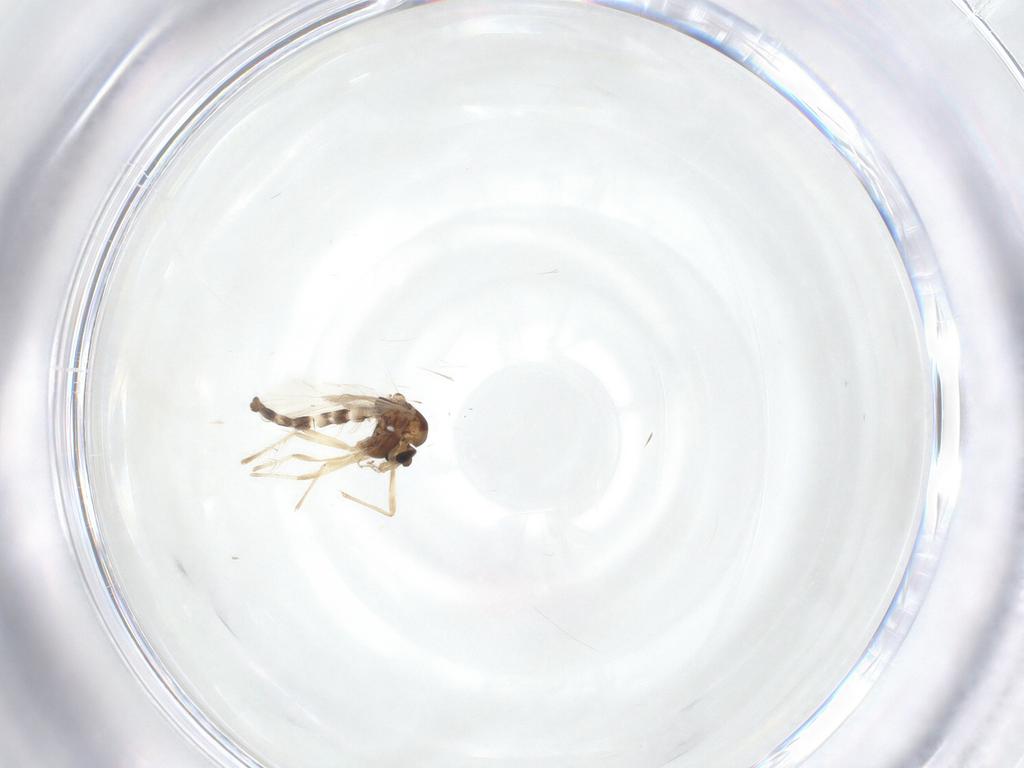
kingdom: Animalia
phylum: Arthropoda
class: Insecta
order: Diptera
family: Chironomidae
